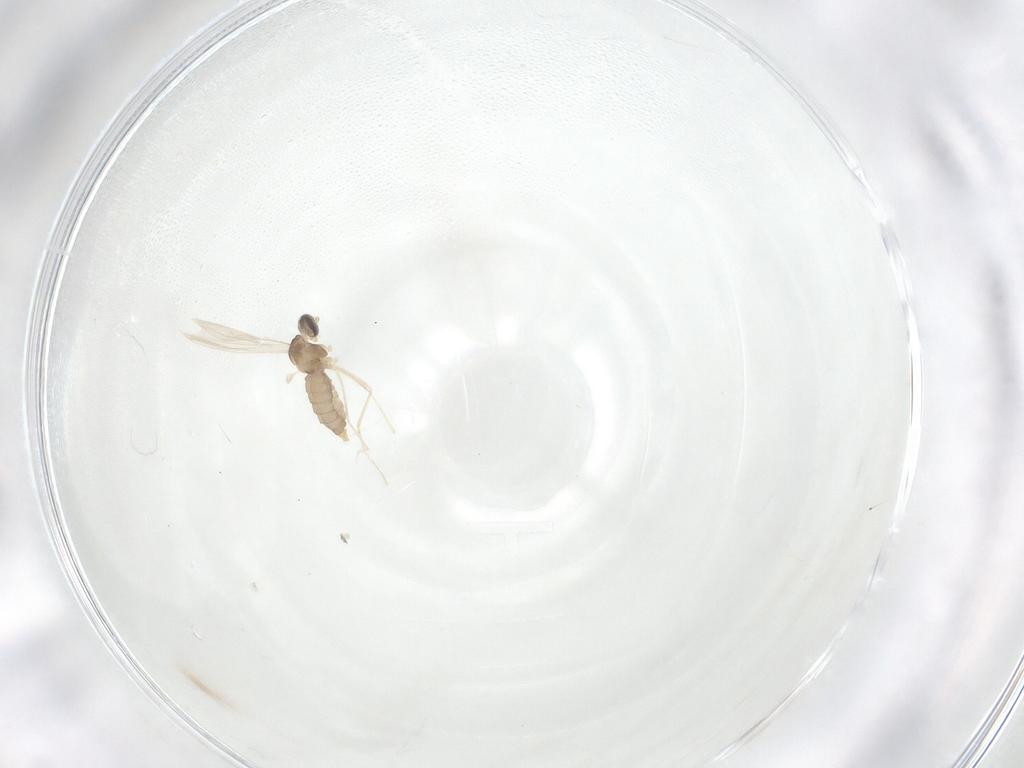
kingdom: Animalia
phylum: Arthropoda
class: Insecta
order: Diptera
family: Cecidomyiidae
